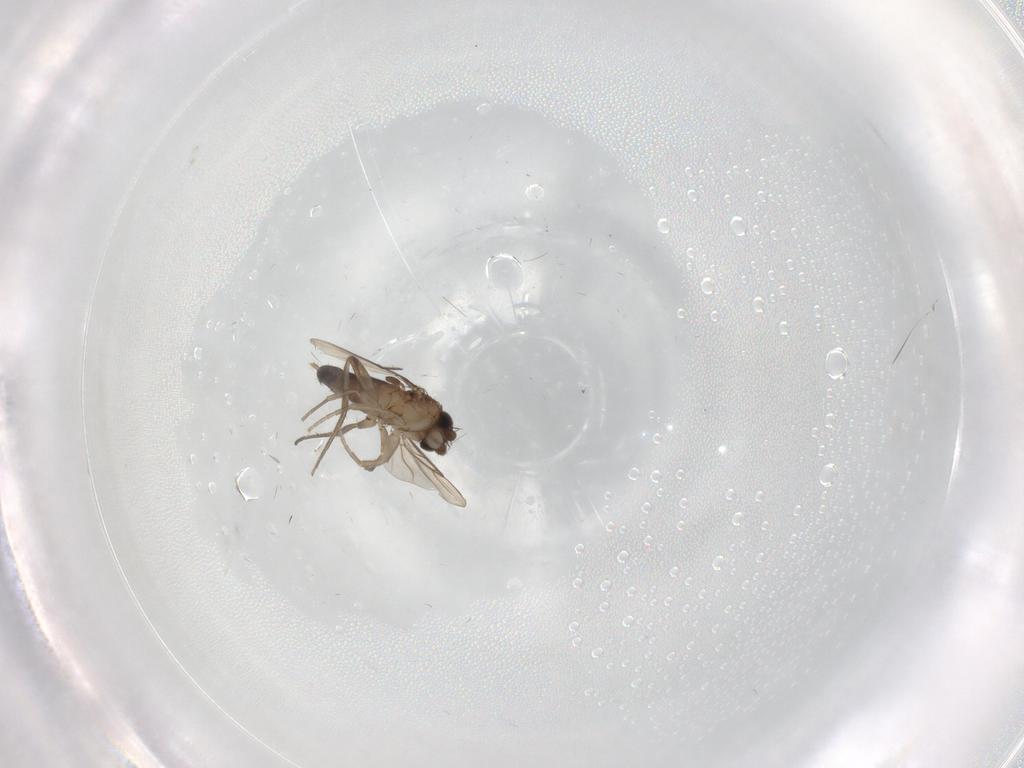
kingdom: Animalia
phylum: Arthropoda
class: Insecta
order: Diptera
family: Phoridae
